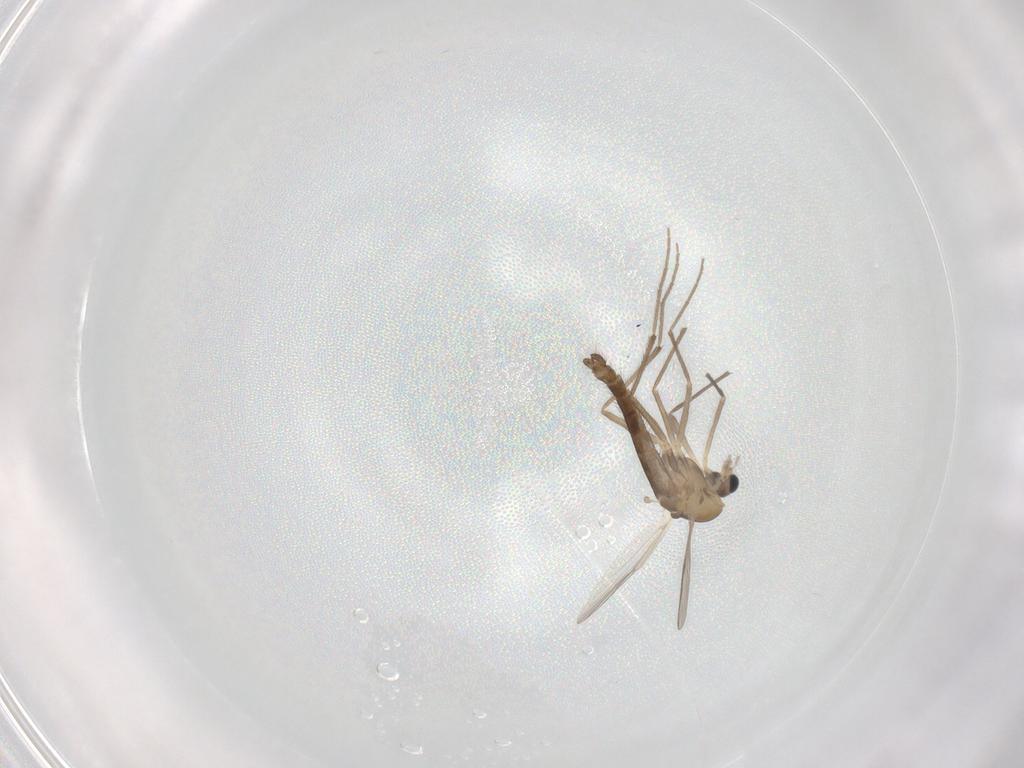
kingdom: Animalia
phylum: Arthropoda
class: Insecta
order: Diptera
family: Chironomidae
